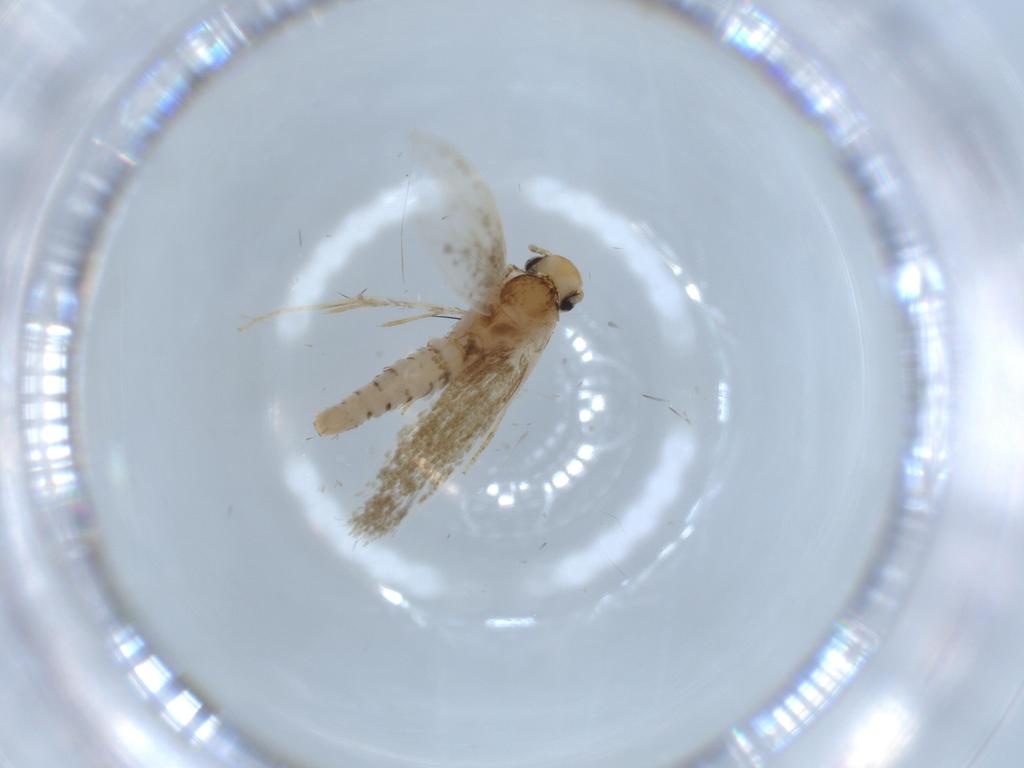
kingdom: Animalia
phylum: Arthropoda
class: Insecta
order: Lepidoptera
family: Tineidae
